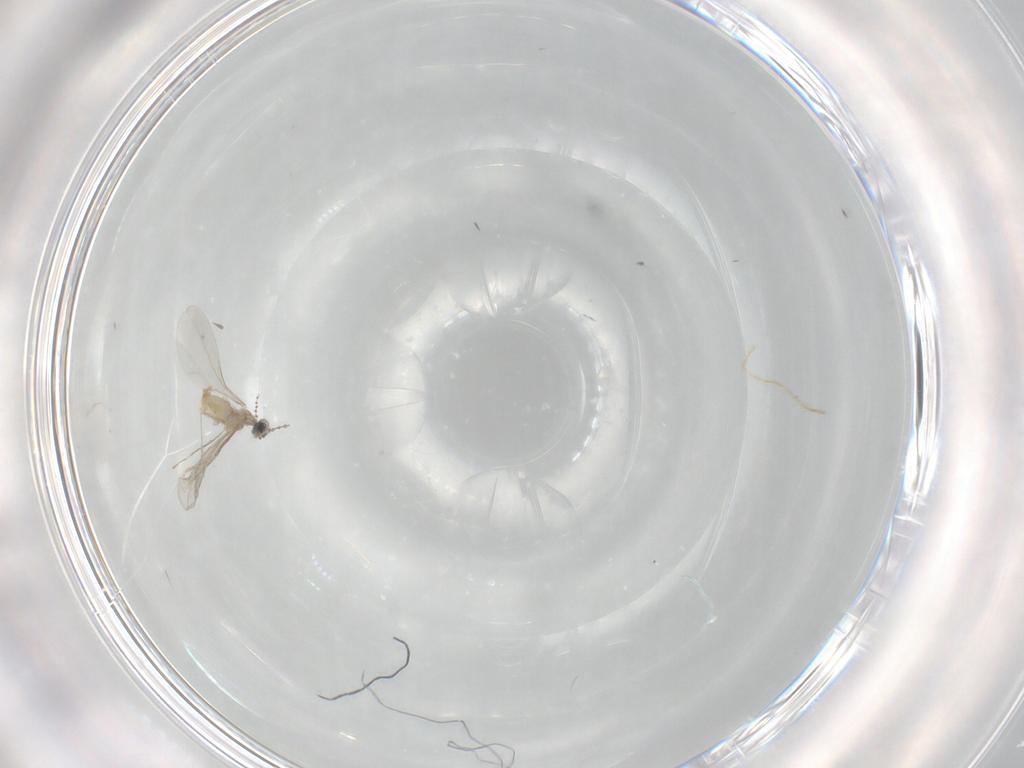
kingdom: Animalia
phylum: Arthropoda
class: Insecta
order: Diptera
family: Cecidomyiidae
